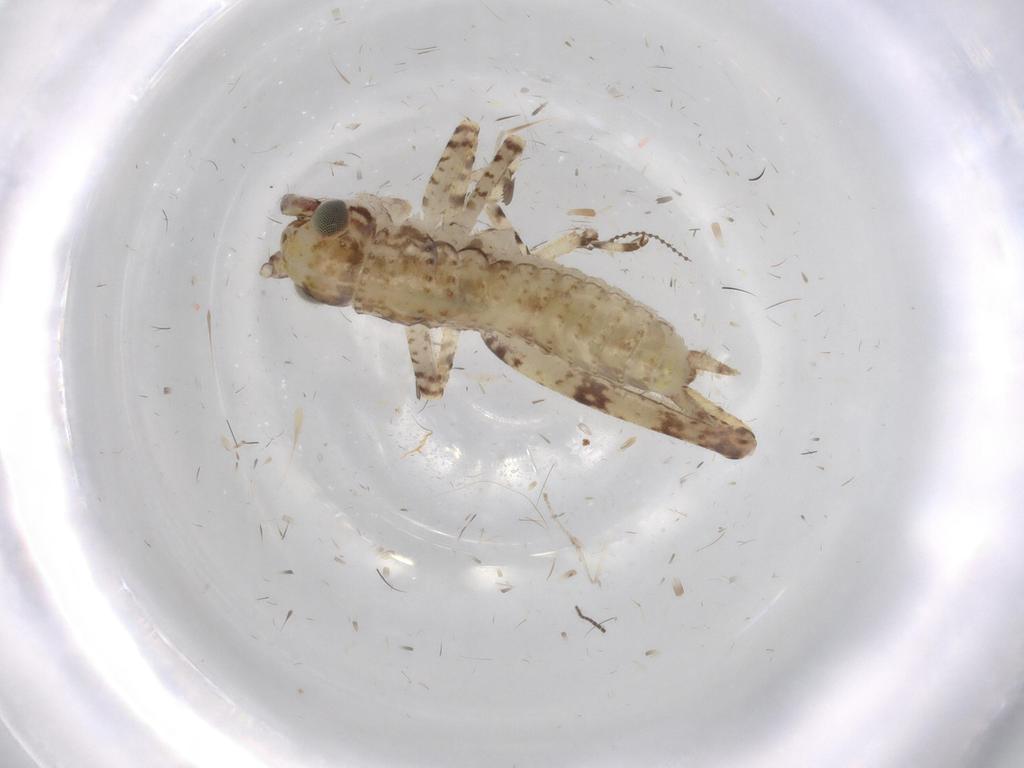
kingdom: Animalia
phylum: Arthropoda
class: Insecta
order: Orthoptera
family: Gryllidae
